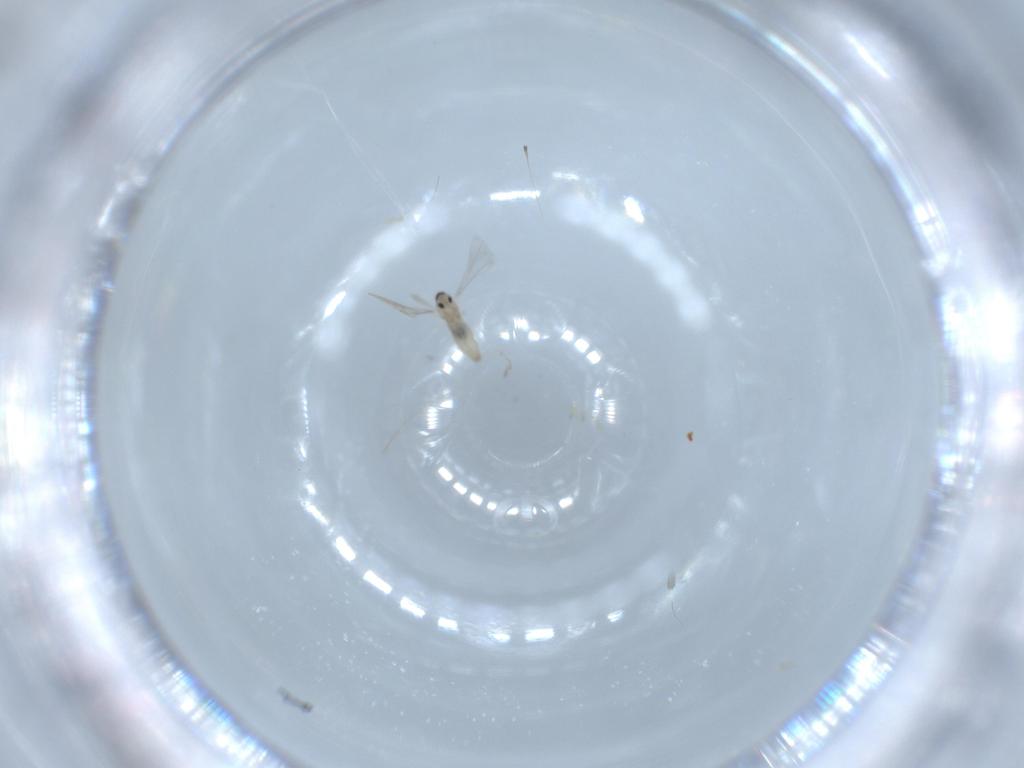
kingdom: Animalia
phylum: Arthropoda
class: Insecta
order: Diptera
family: Cecidomyiidae
